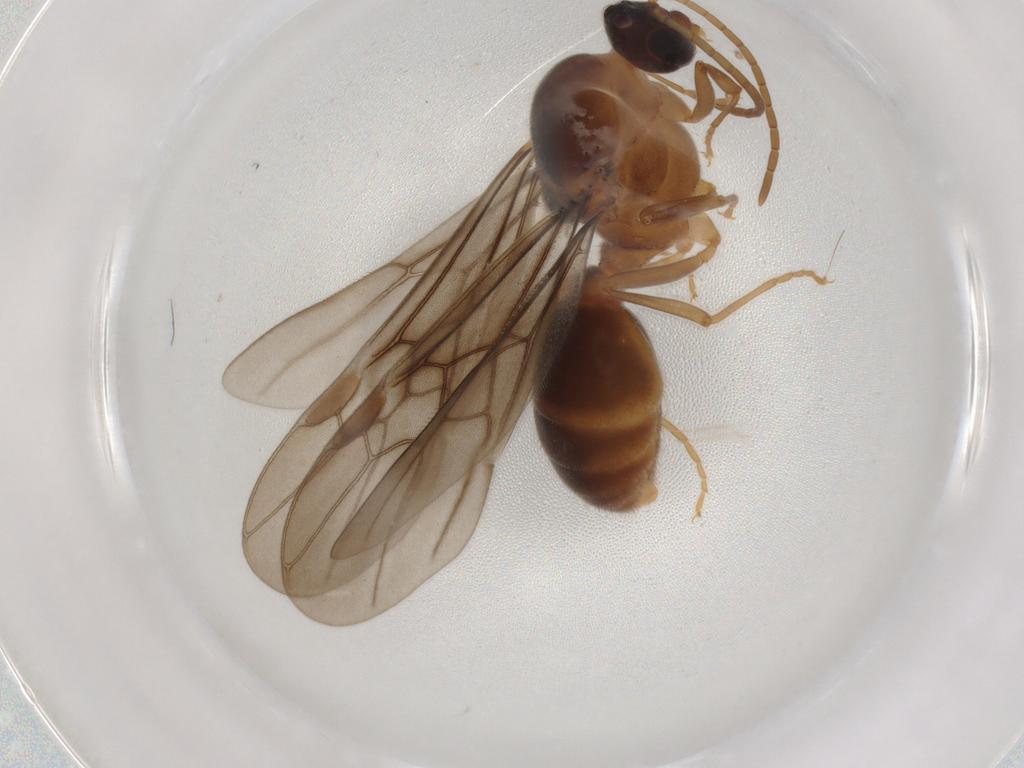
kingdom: Animalia
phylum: Arthropoda
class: Insecta
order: Hymenoptera
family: Formicidae
